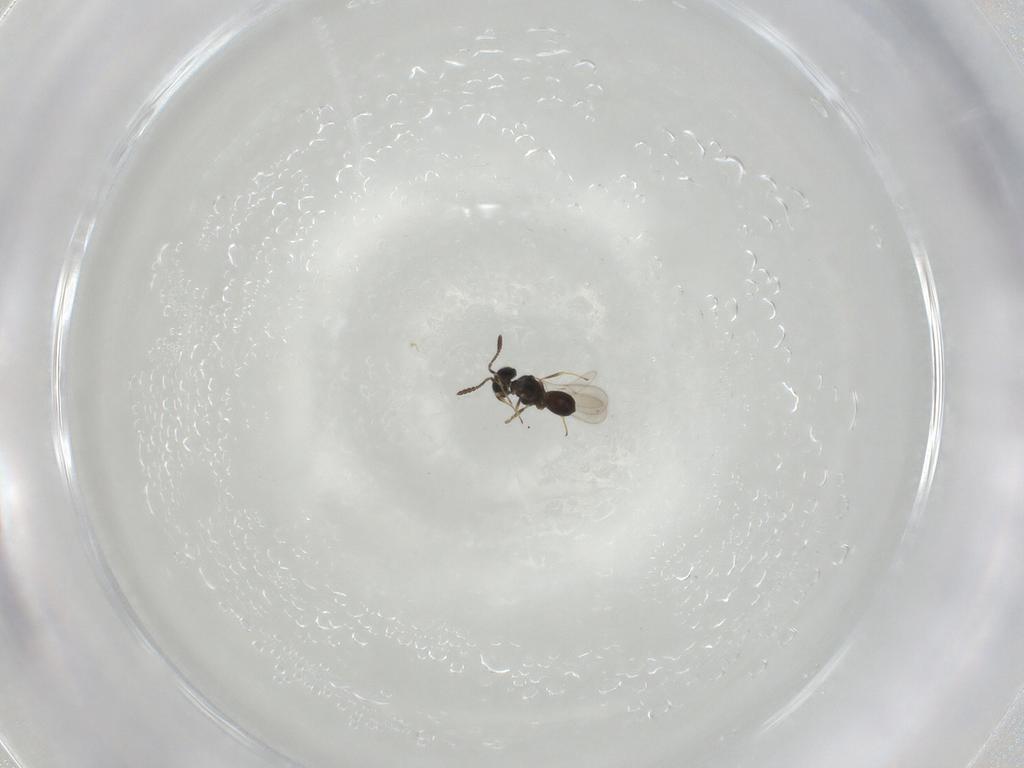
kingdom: Animalia
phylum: Arthropoda
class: Insecta
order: Hymenoptera
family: Scelionidae
